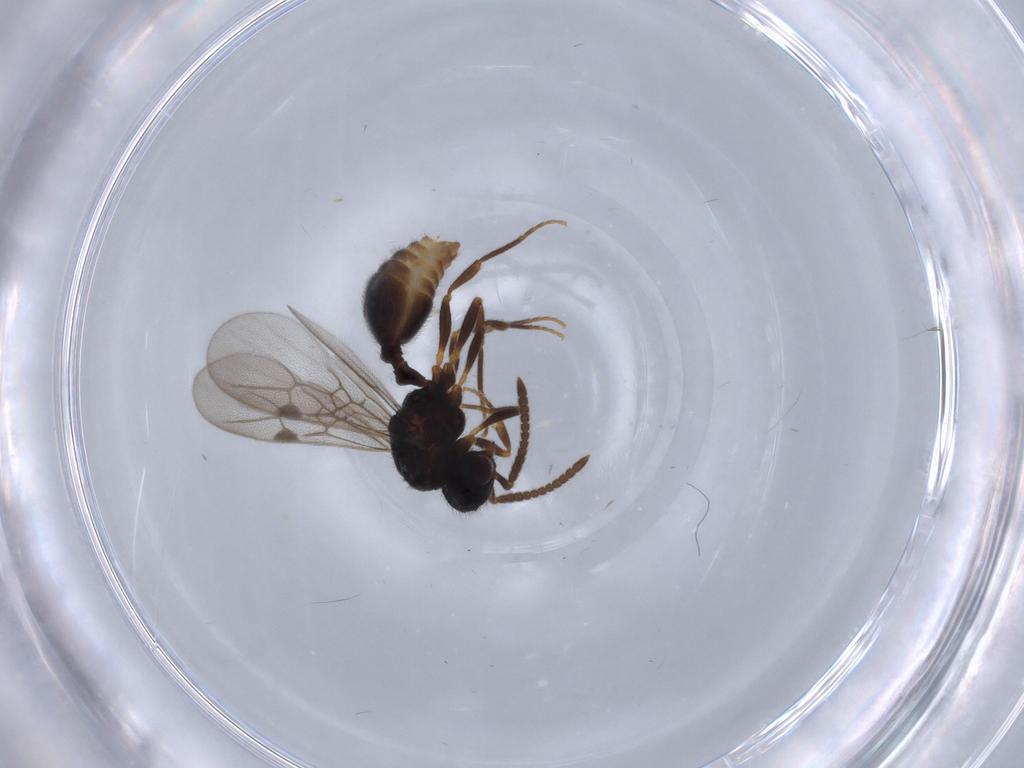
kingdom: Animalia
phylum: Arthropoda
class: Insecta
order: Hymenoptera
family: Formicidae
